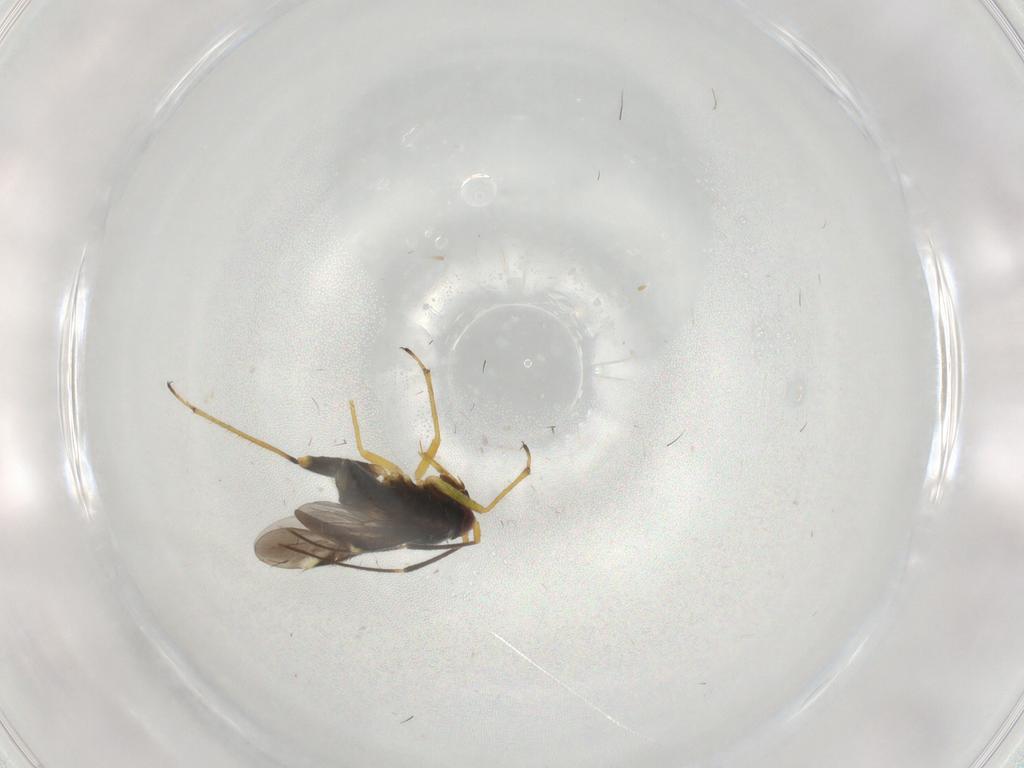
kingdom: Animalia
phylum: Arthropoda
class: Insecta
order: Hemiptera
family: Miridae
